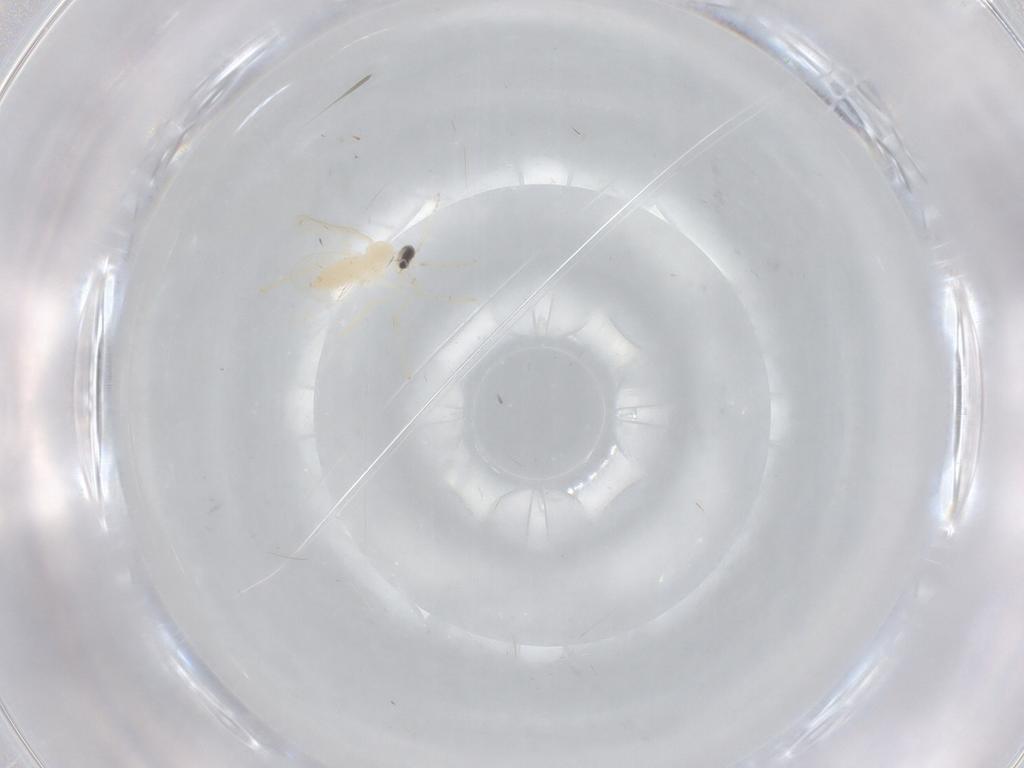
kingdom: Animalia
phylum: Arthropoda
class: Insecta
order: Diptera
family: Cecidomyiidae
